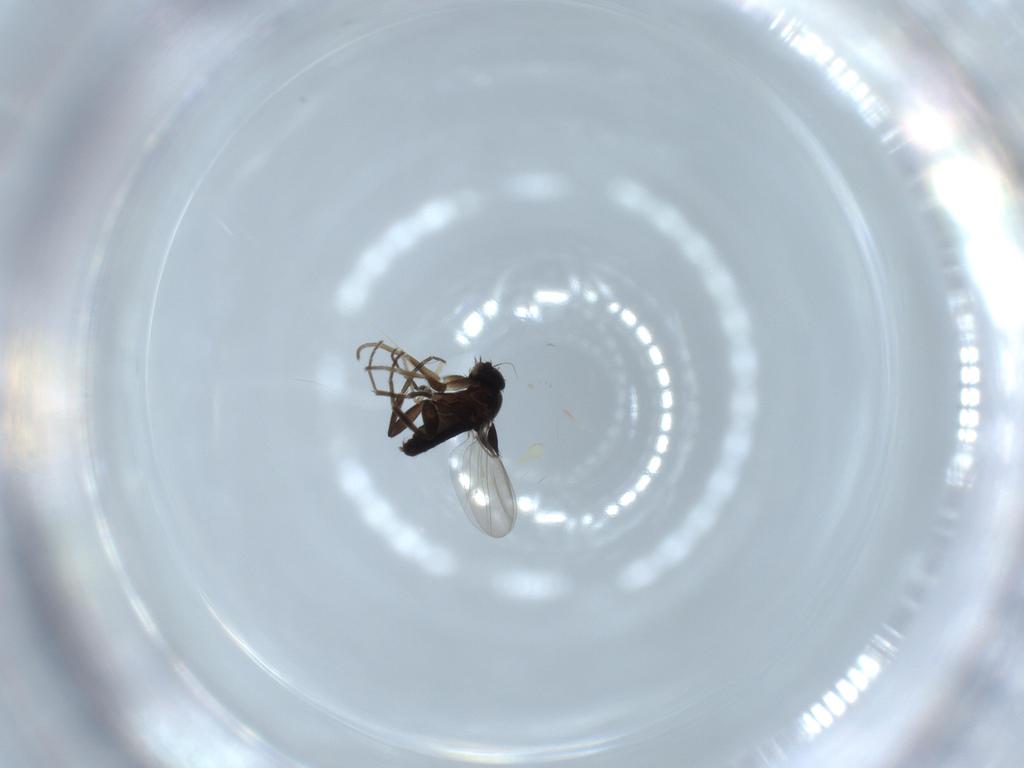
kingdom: Animalia
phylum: Arthropoda
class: Insecta
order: Diptera
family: Phoridae
